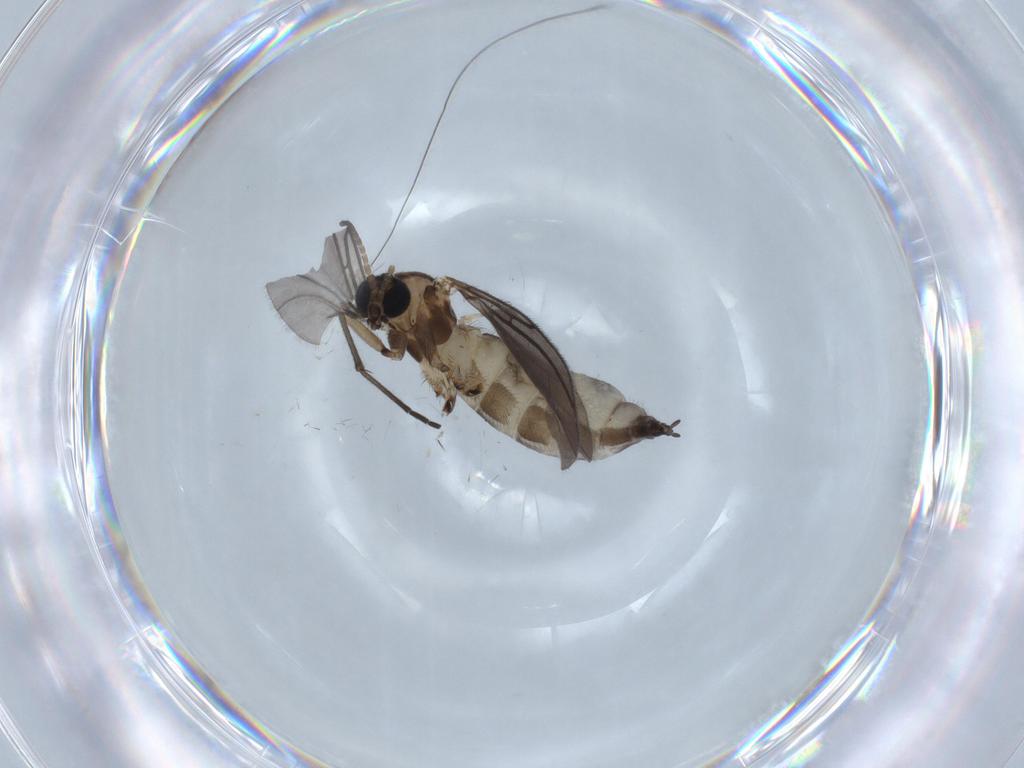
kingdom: Animalia
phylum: Arthropoda
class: Insecta
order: Diptera
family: Sciaridae
